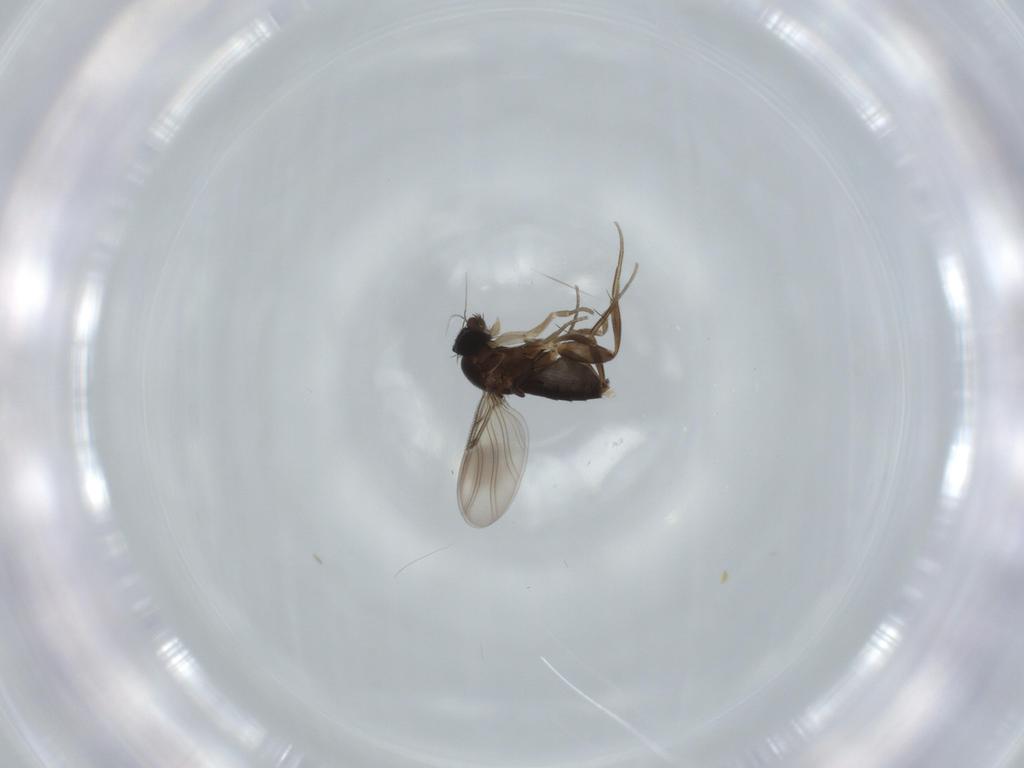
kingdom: Animalia
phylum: Arthropoda
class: Insecta
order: Diptera
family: Phoridae
